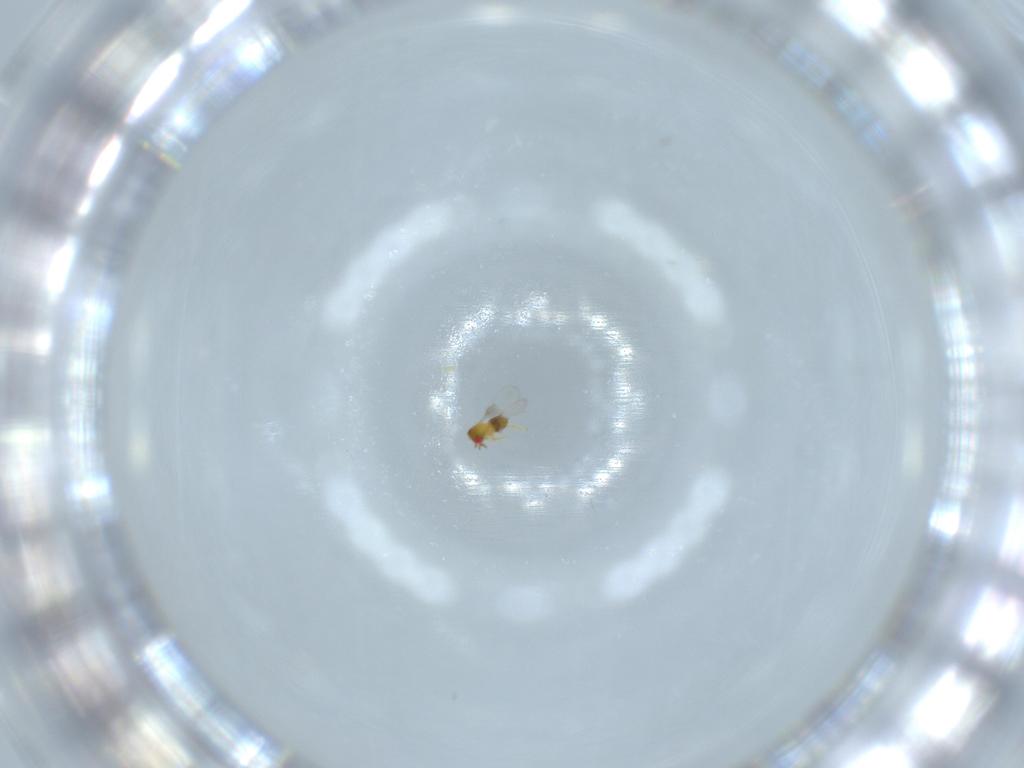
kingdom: Animalia
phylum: Arthropoda
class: Insecta
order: Hymenoptera
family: Trichogrammatidae
